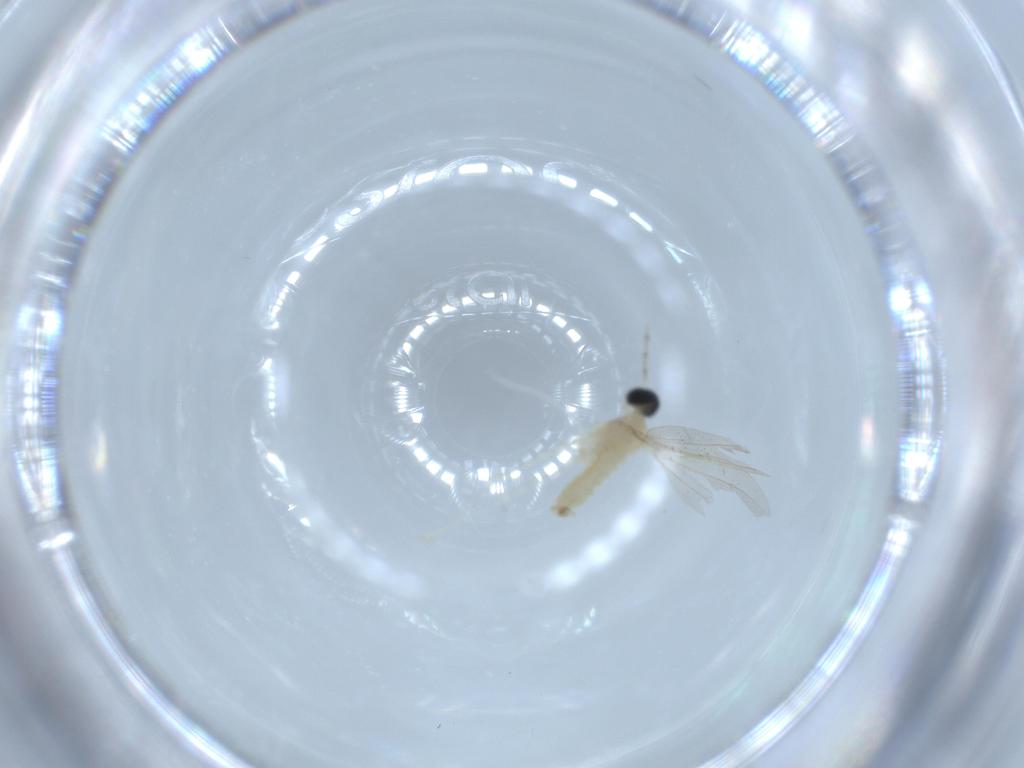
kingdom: Animalia
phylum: Arthropoda
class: Insecta
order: Diptera
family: Cecidomyiidae
